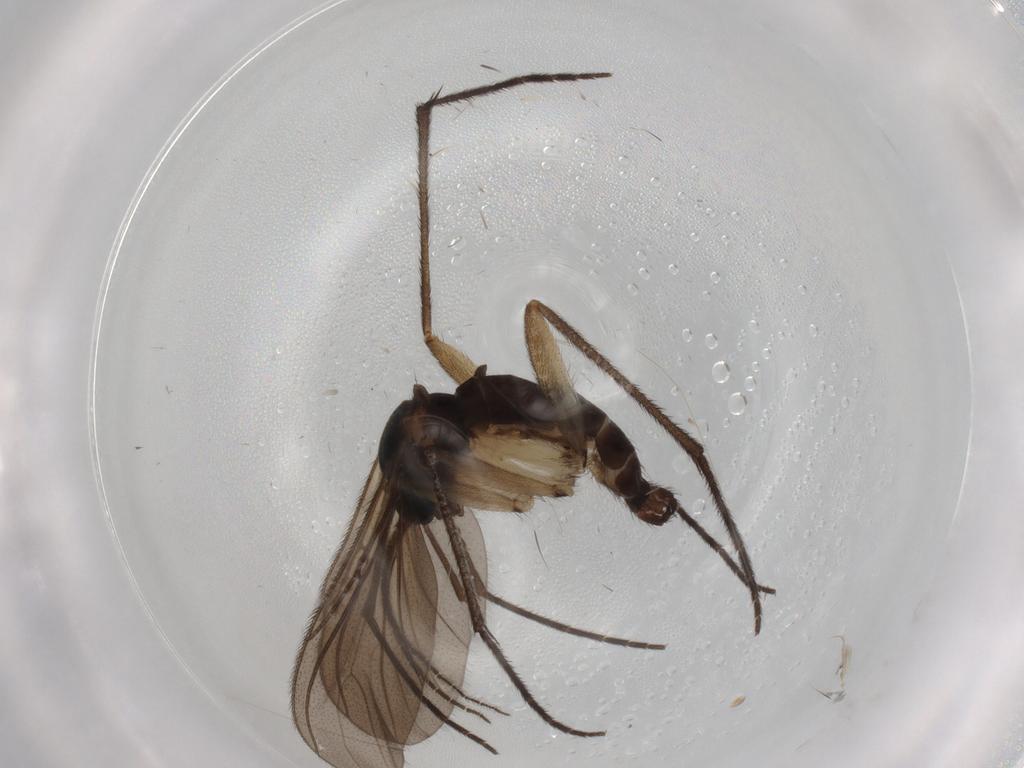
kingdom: Animalia
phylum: Arthropoda
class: Insecta
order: Diptera
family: Sciaridae
